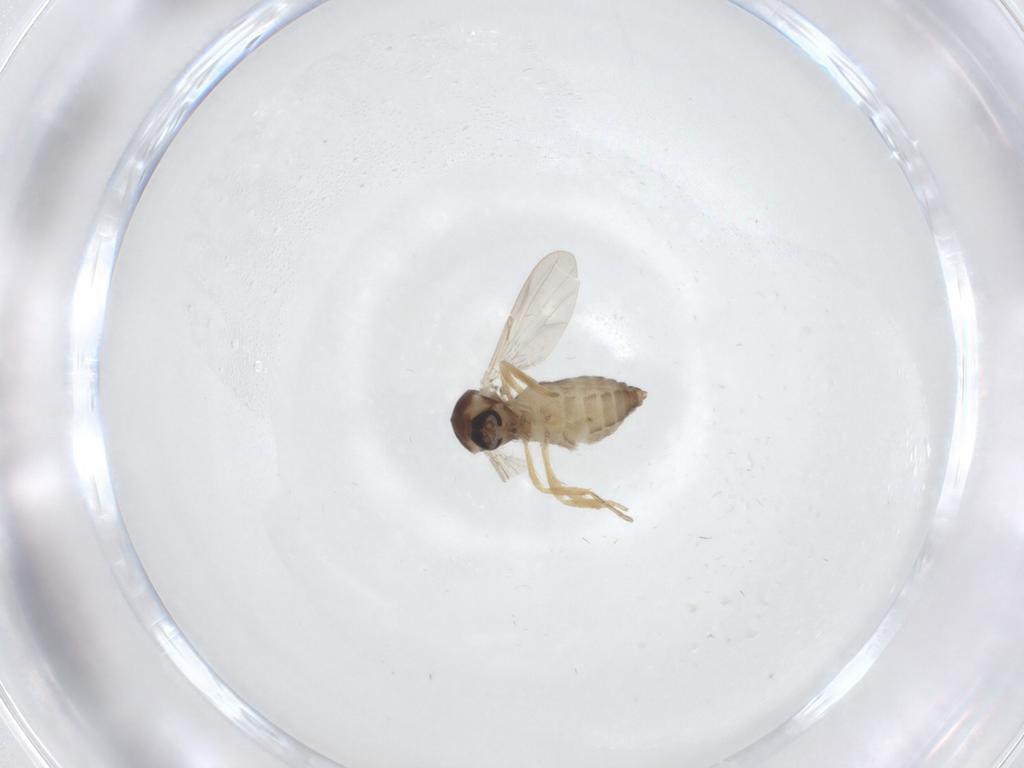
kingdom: Animalia
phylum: Arthropoda
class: Insecta
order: Diptera
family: Ceratopogonidae
